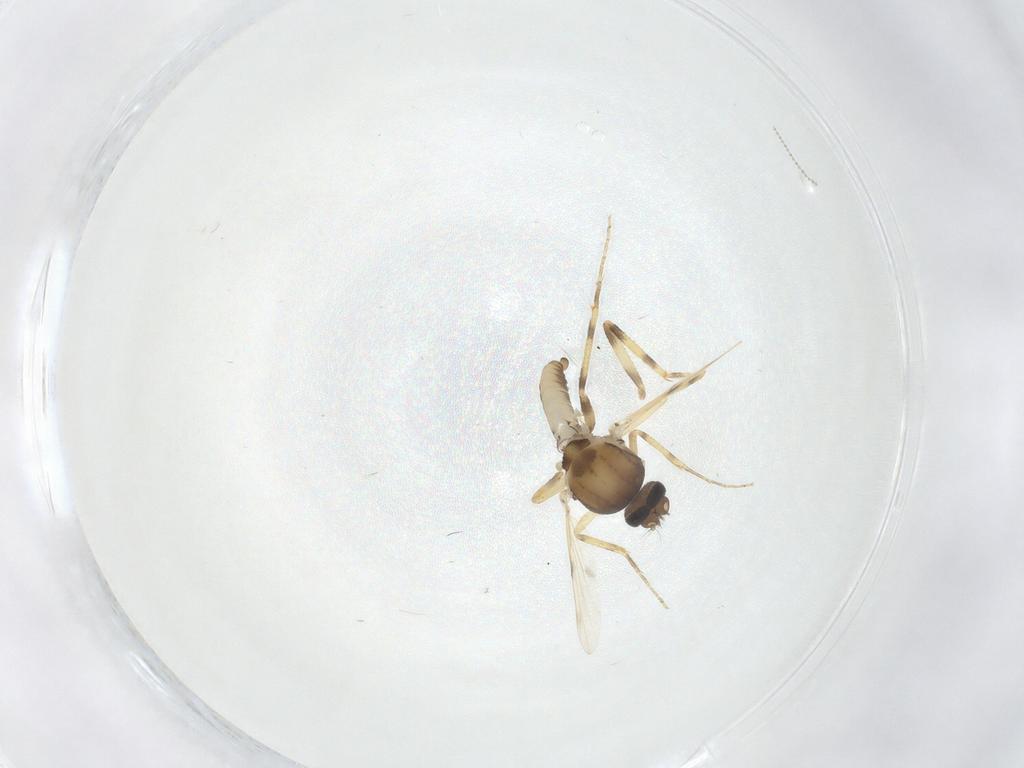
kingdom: Animalia
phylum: Arthropoda
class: Insecta
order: Diptera
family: Ceratopogonidae
